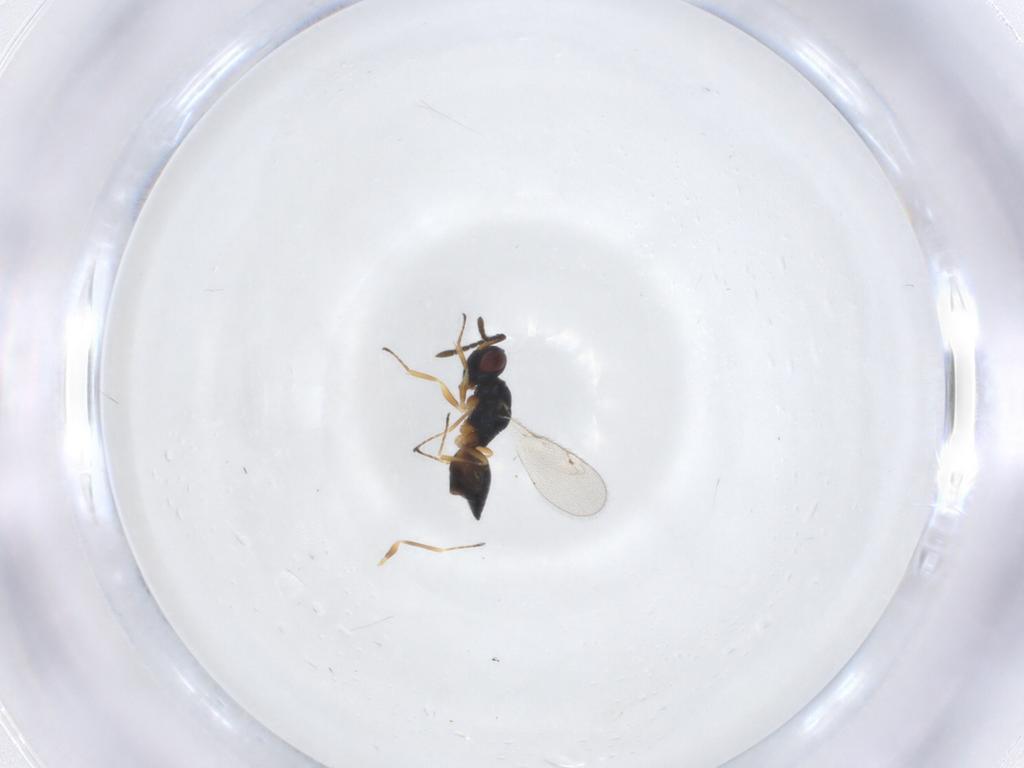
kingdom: Animalia
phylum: Arthropoda
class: Insecta
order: Hymenoptera
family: Pteromalidae
